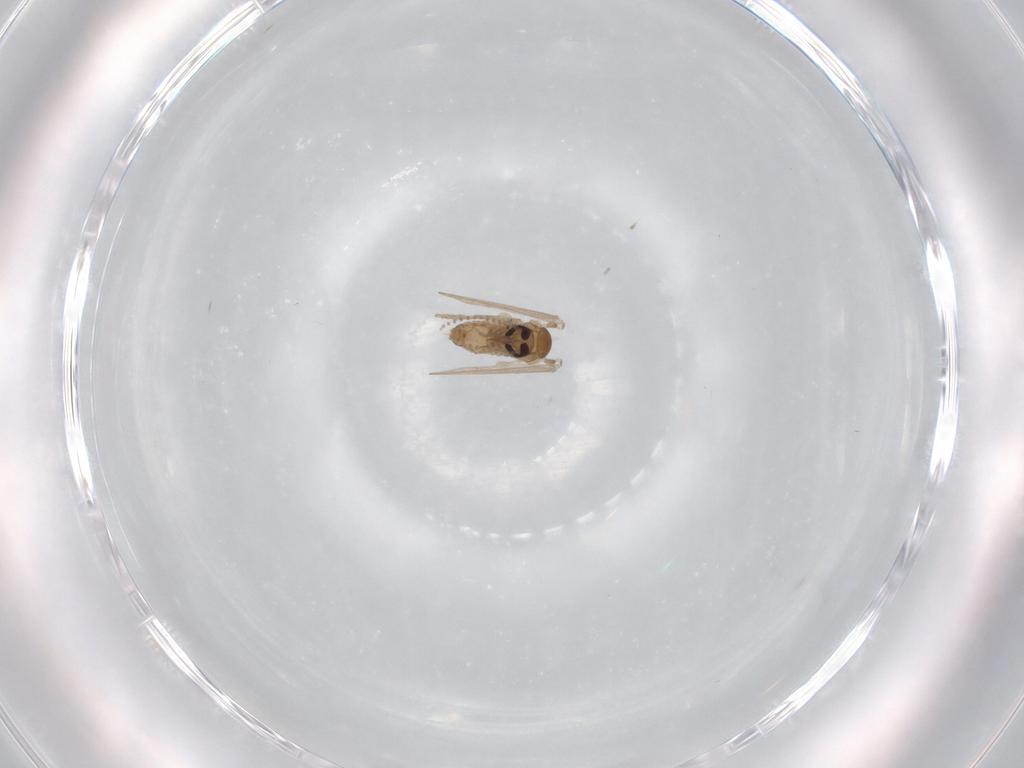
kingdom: Animalia
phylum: Arthropoda
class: Insecta
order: Diptera
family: Psychodidae
